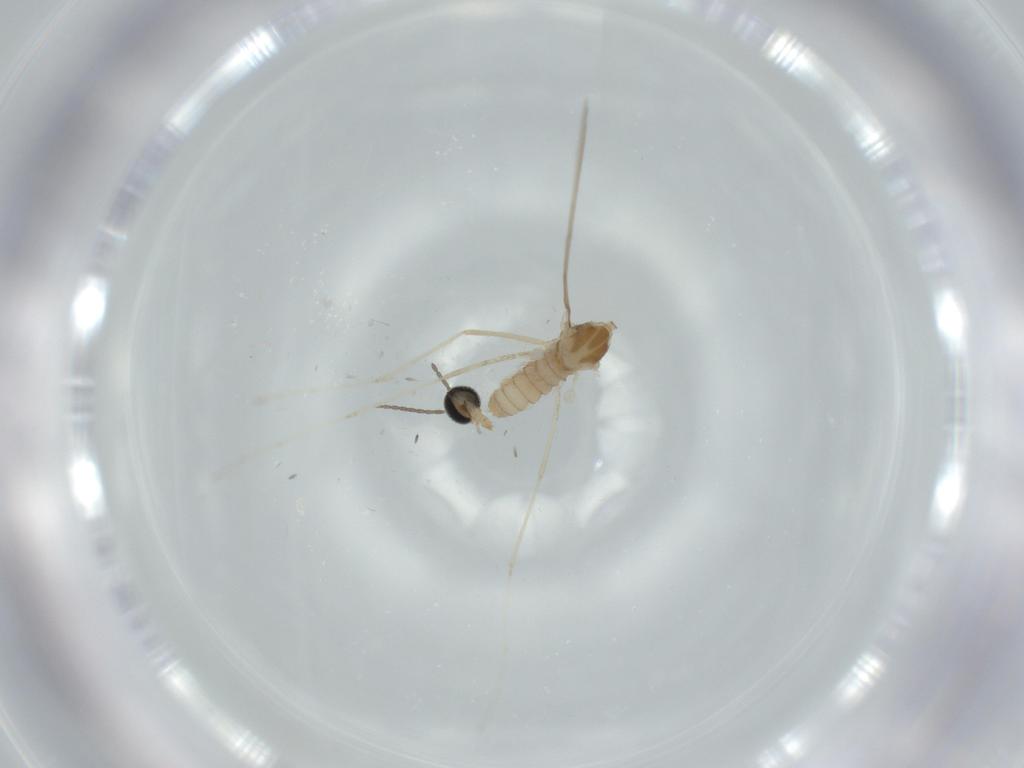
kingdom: Animalia
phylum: Arthropoda
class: Insecta
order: Diptera
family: Cecidomyiidae
